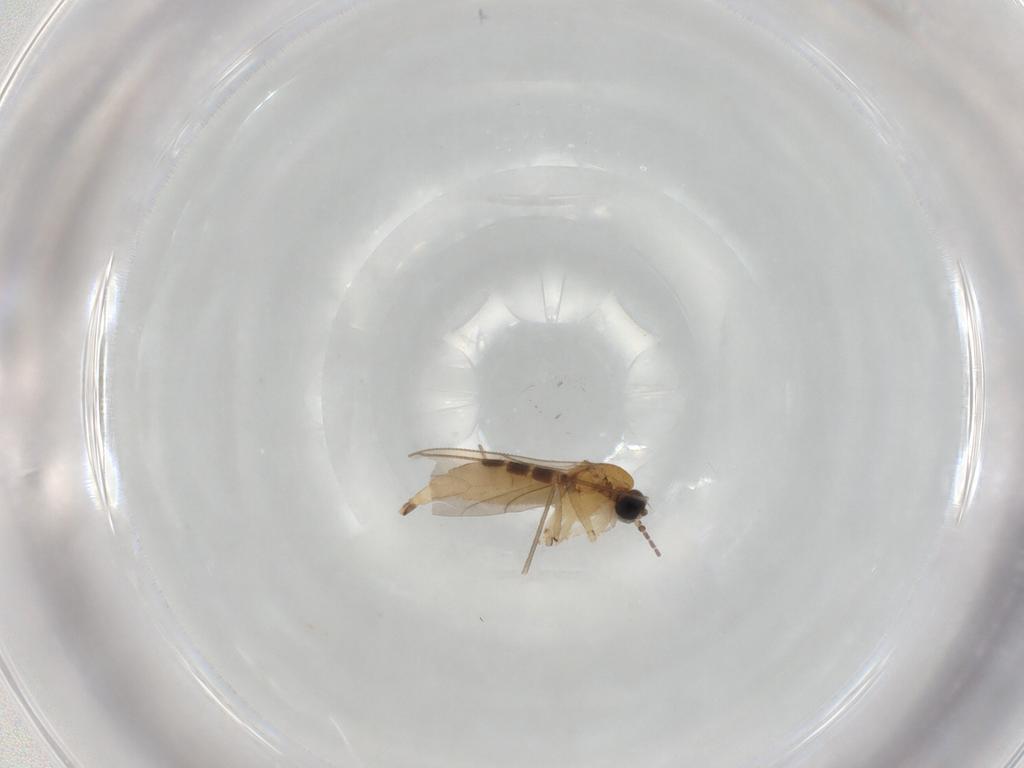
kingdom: Animalia
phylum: Arthropoda
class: Insecta
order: Diptera
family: Sciaridae
